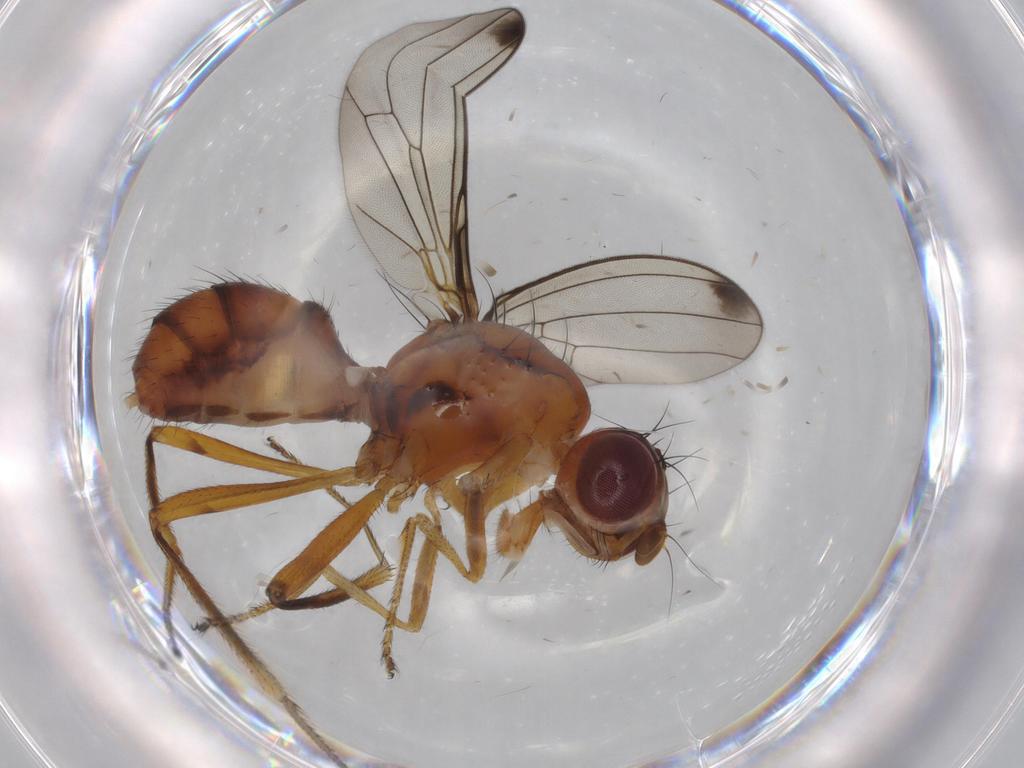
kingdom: Animalia
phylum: Arthropoda
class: Insecta
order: Diptera
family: Sepsidae
